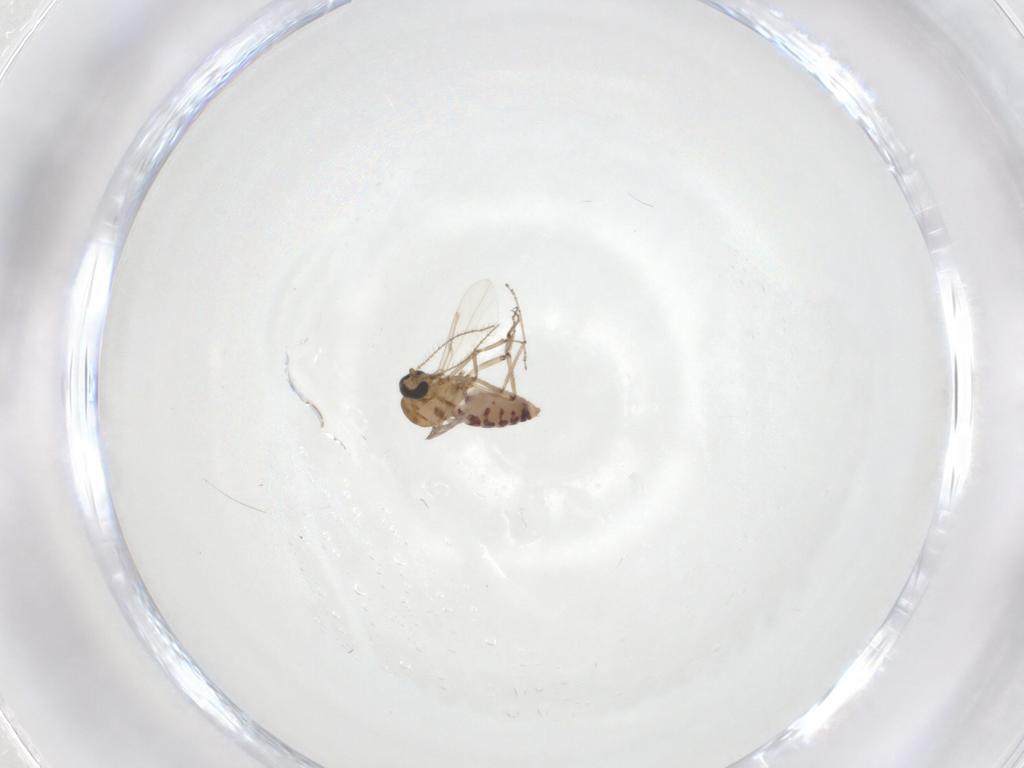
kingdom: Animalia
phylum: Arthropoda
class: Insecta
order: Diptera
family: Ceratopogonidae
